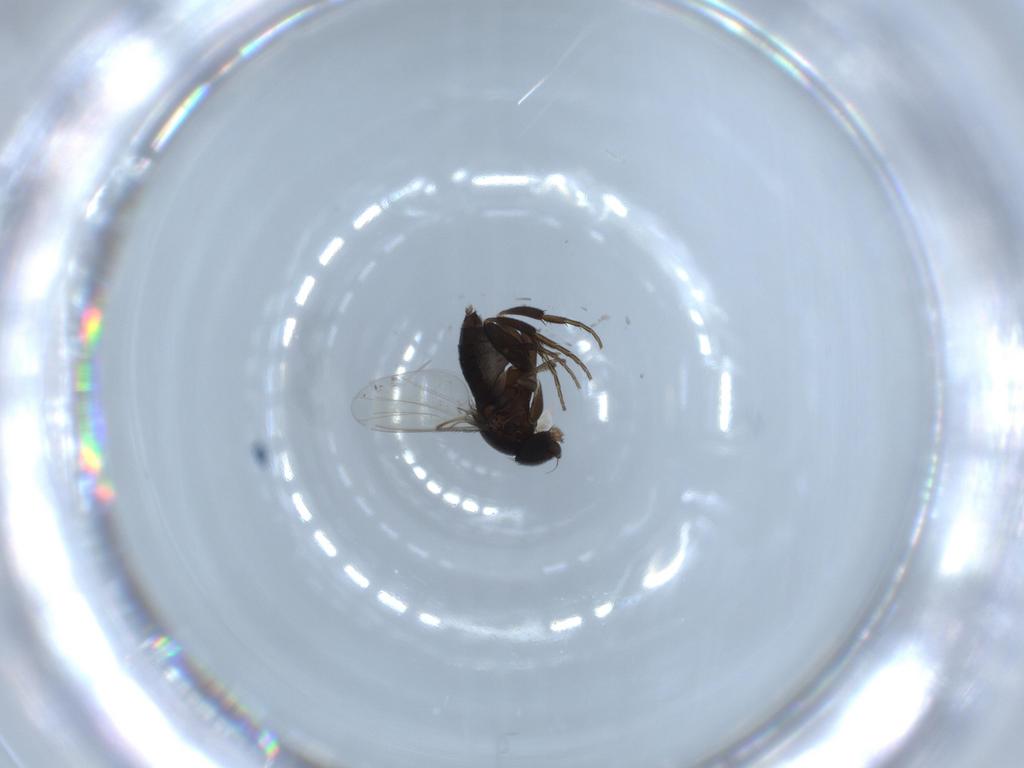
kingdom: Animalia
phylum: Arthropoda
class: Insecta
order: Diptera
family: Cecidomyiidae
